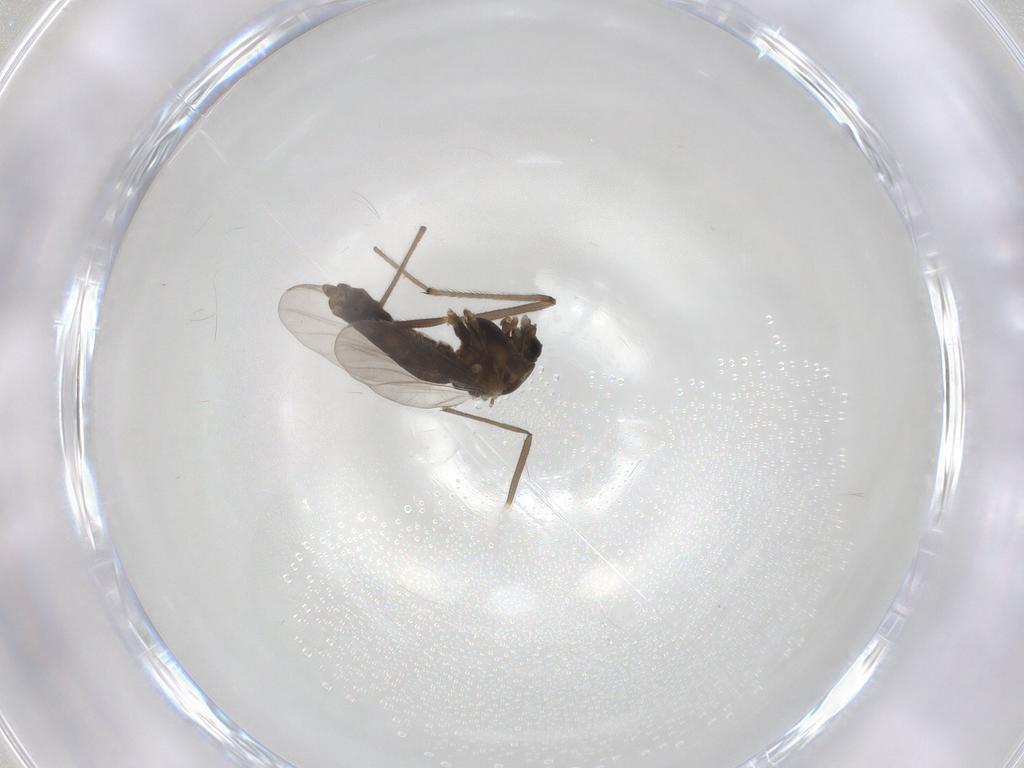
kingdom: Animalia
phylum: Arthropoda
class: Insecta
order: Diptera
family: Chironomidae
